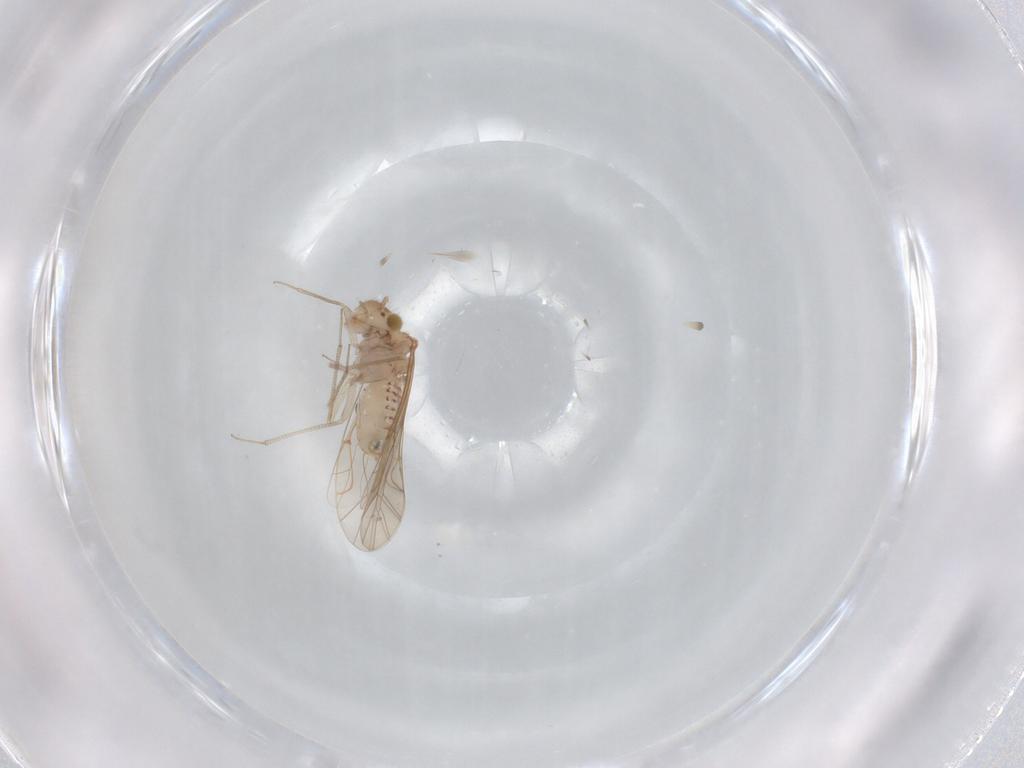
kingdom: Animalia
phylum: Arthropoda
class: Insecta
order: Psocodea
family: Lachesillidae
